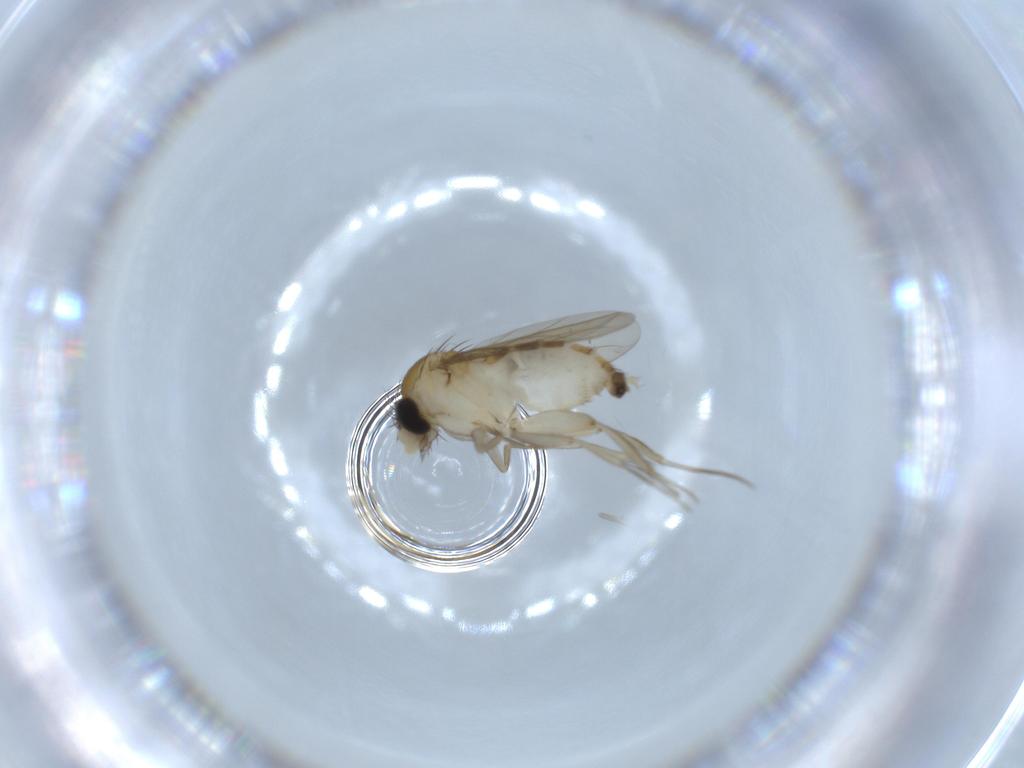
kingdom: Animalia
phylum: Arthropoda
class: Insecta
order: Diptera
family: Phoridae
